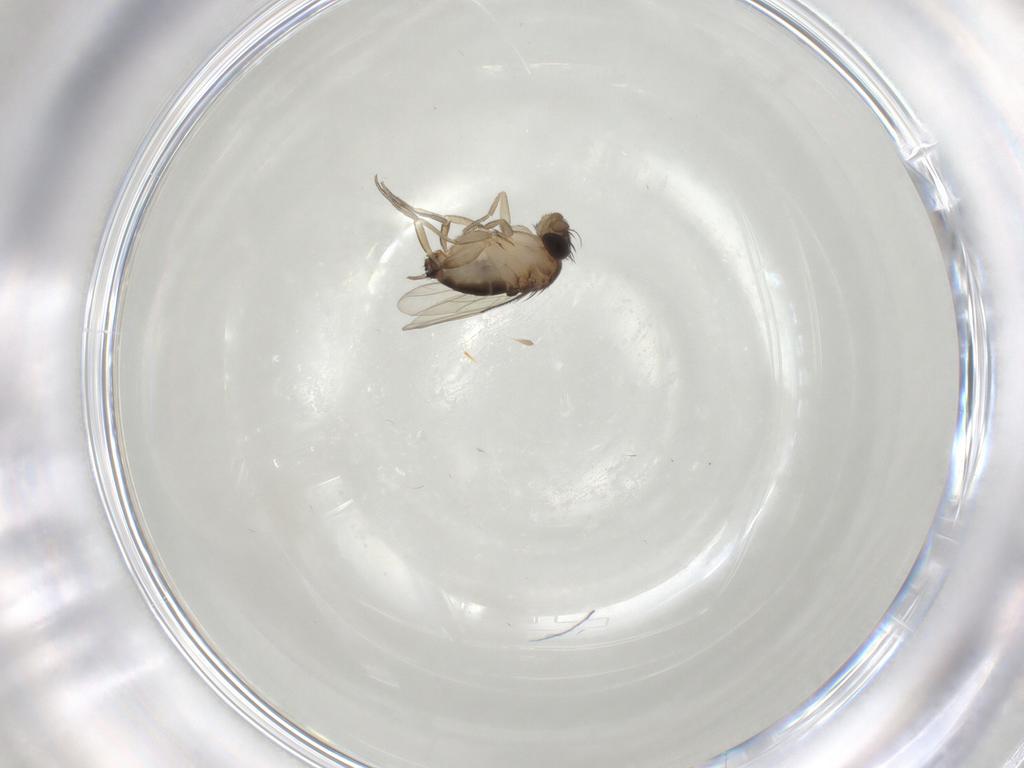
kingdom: Animalia
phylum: Arthropoda
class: Insecta
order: Diptera
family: Phoridae
